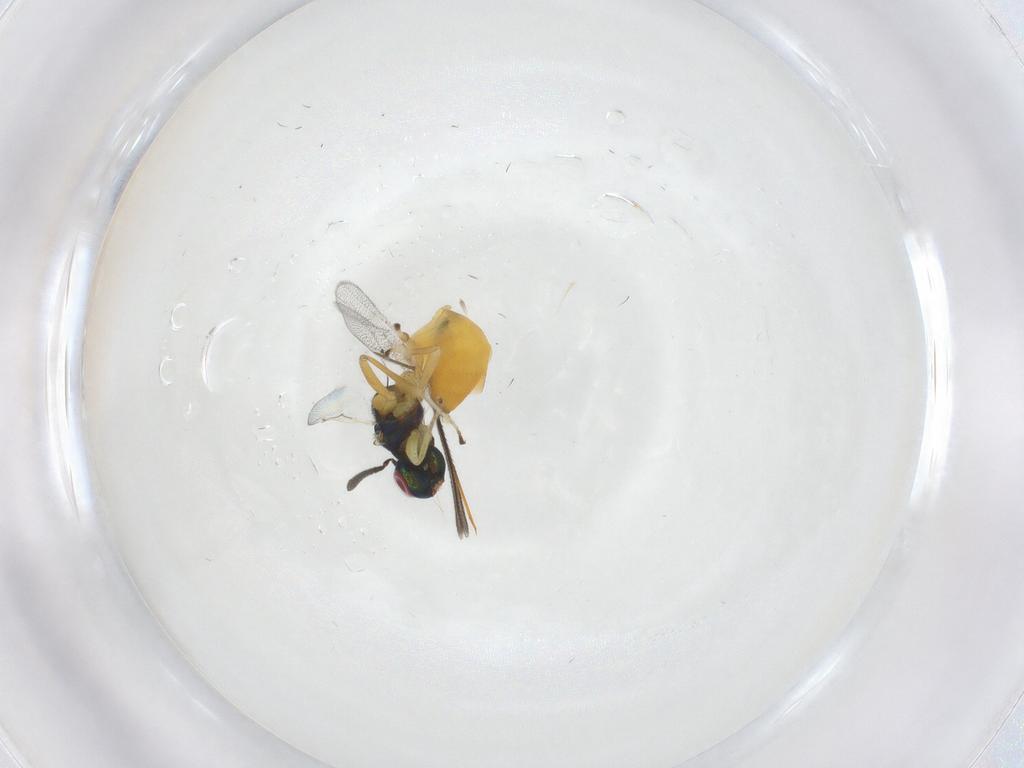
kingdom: Animalia
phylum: Arthropoda
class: Insecta
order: Hymenoptera
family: Torymidae
